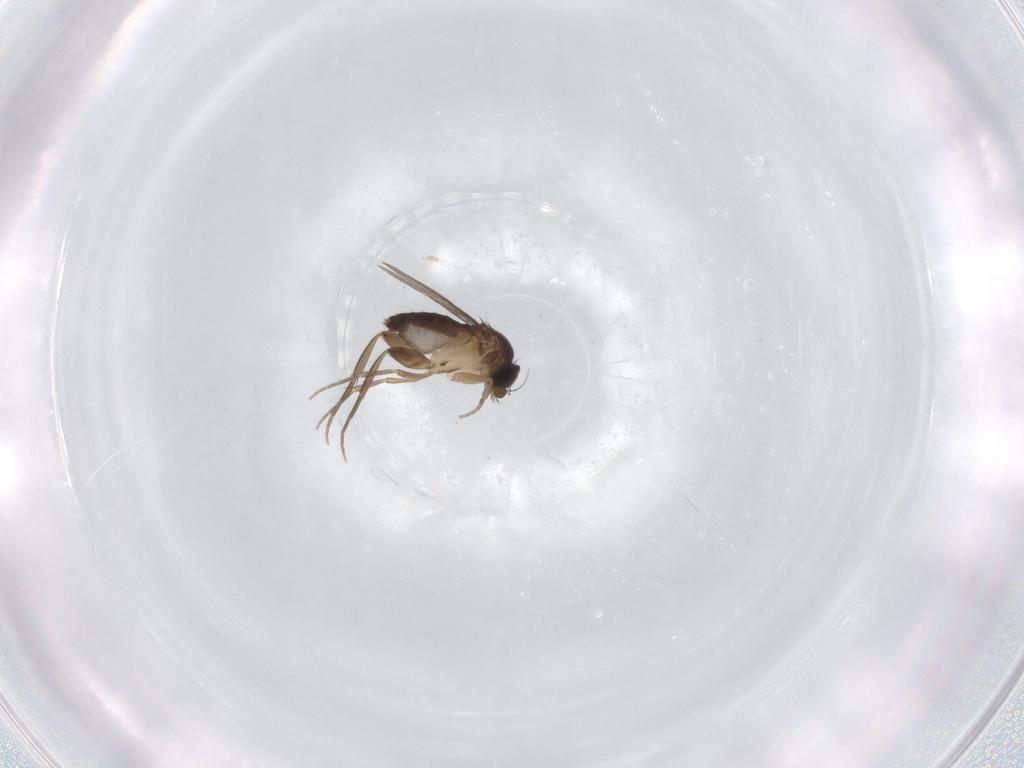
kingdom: Animalia
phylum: Arthropoda
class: Insecta
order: Diptera
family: Phoridae
